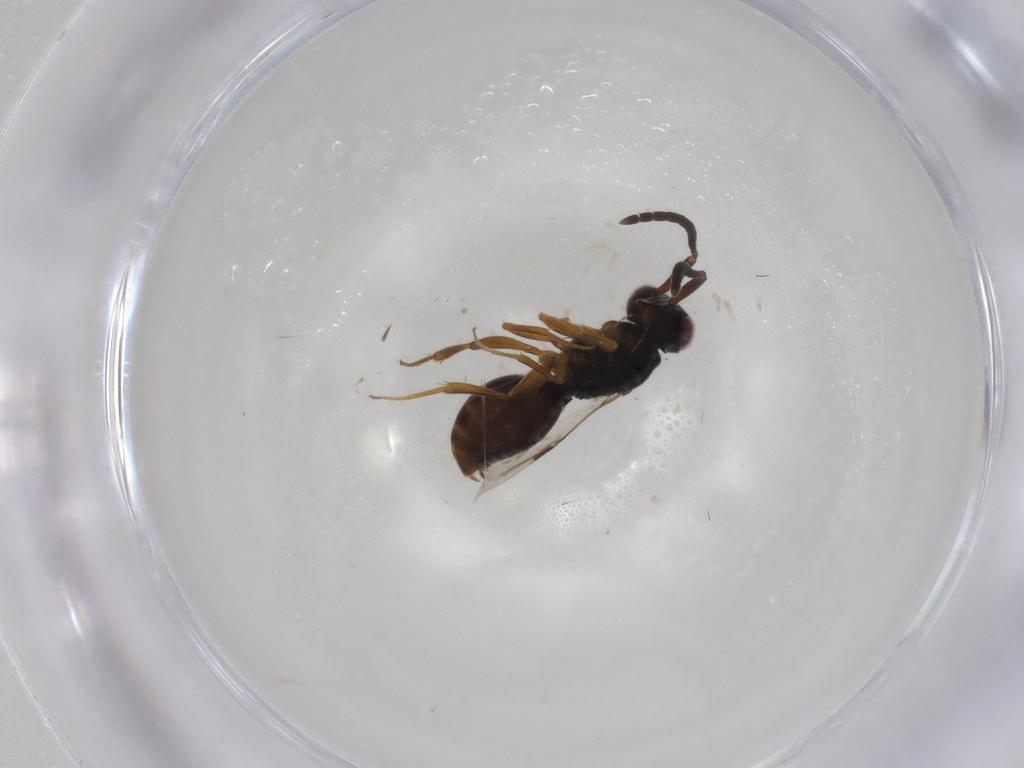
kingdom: Animalia
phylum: Arthropoda
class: Insecta
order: Hymenoptera
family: Megaspilidae
